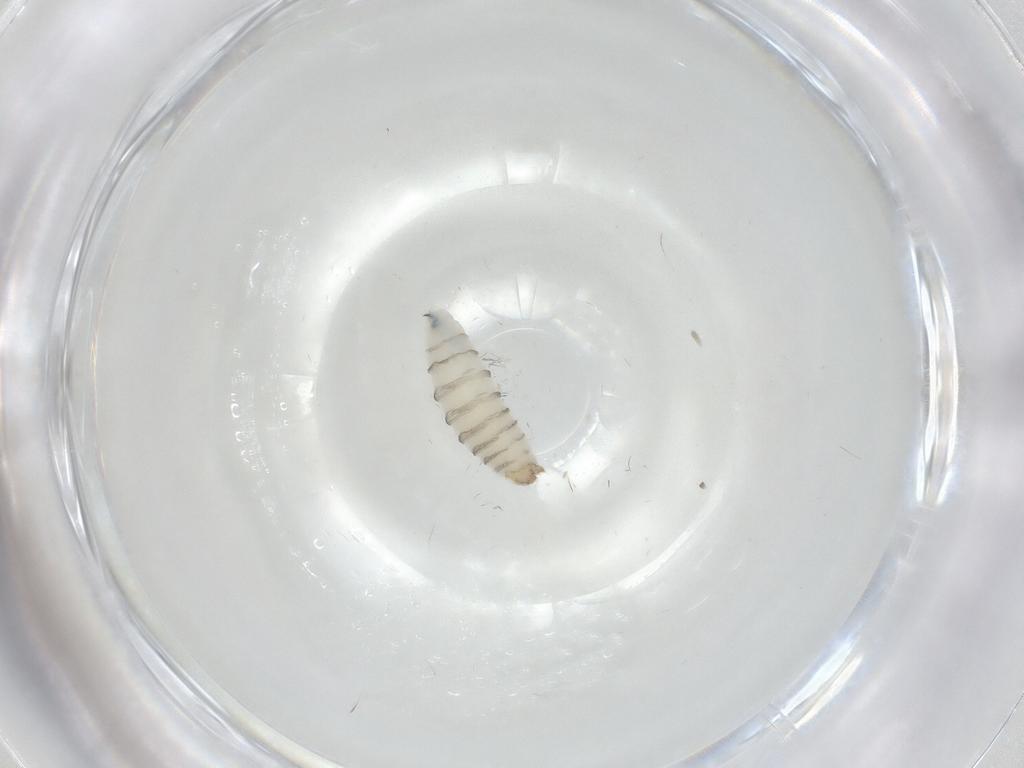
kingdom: Animalia
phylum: Arthropoda
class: Insecta
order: Diptera
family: Sarcophagidae
